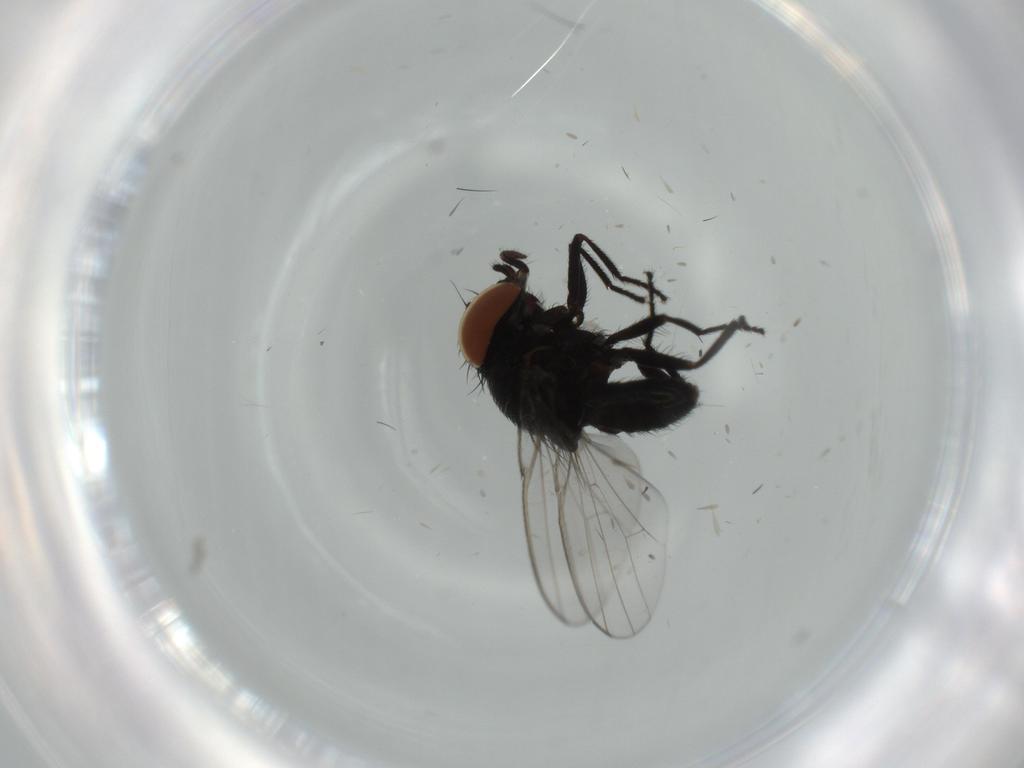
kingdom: Animalia
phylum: Arthropoda
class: Insecta
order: Diptera
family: Milichiidae
